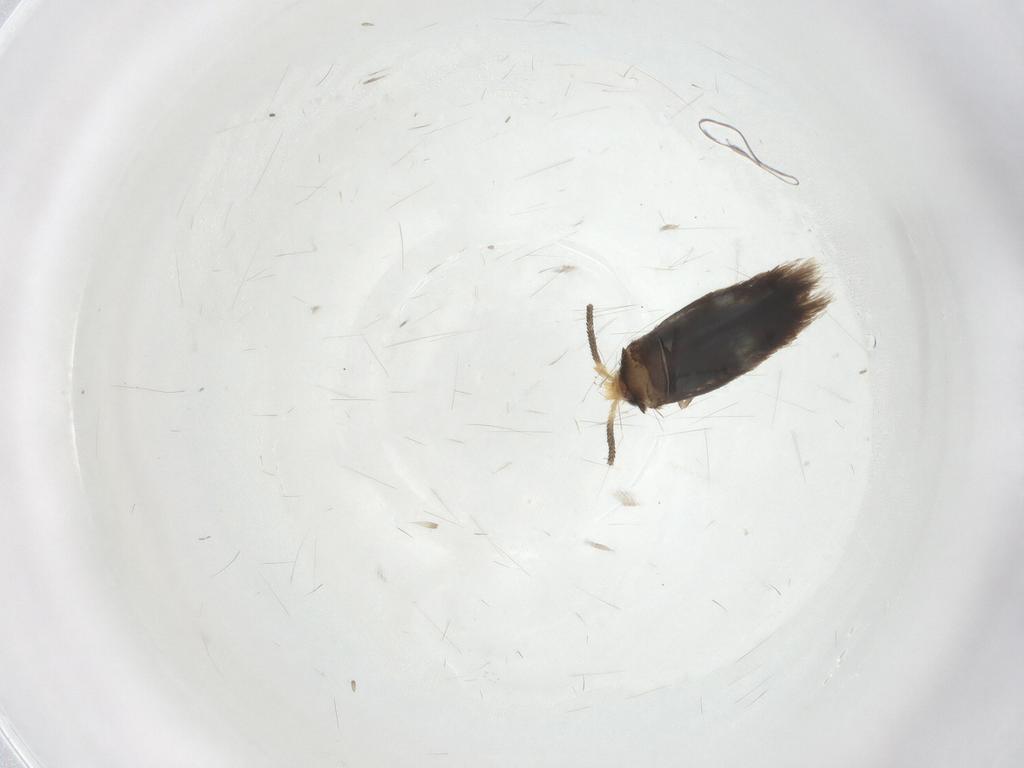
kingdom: Animalia
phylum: Arthropoda
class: Insecta
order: Lepidoptera
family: Nepticulidae
